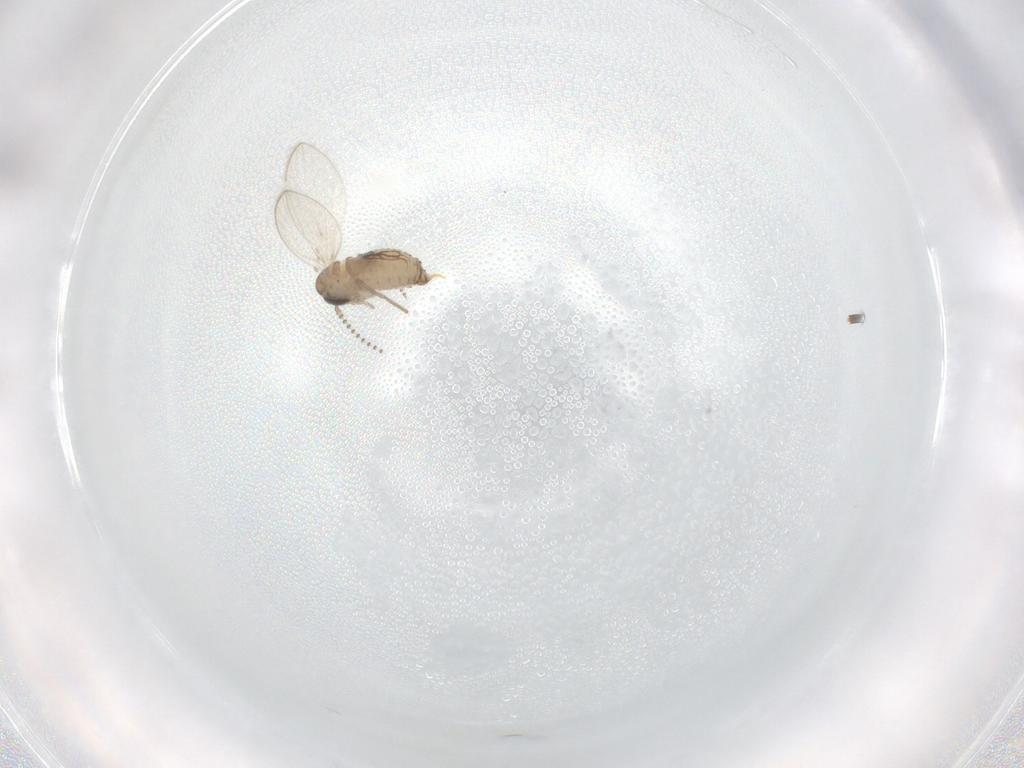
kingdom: Animalia
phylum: Arthropoda
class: Insecta
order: Diptera
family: Psychodidae
